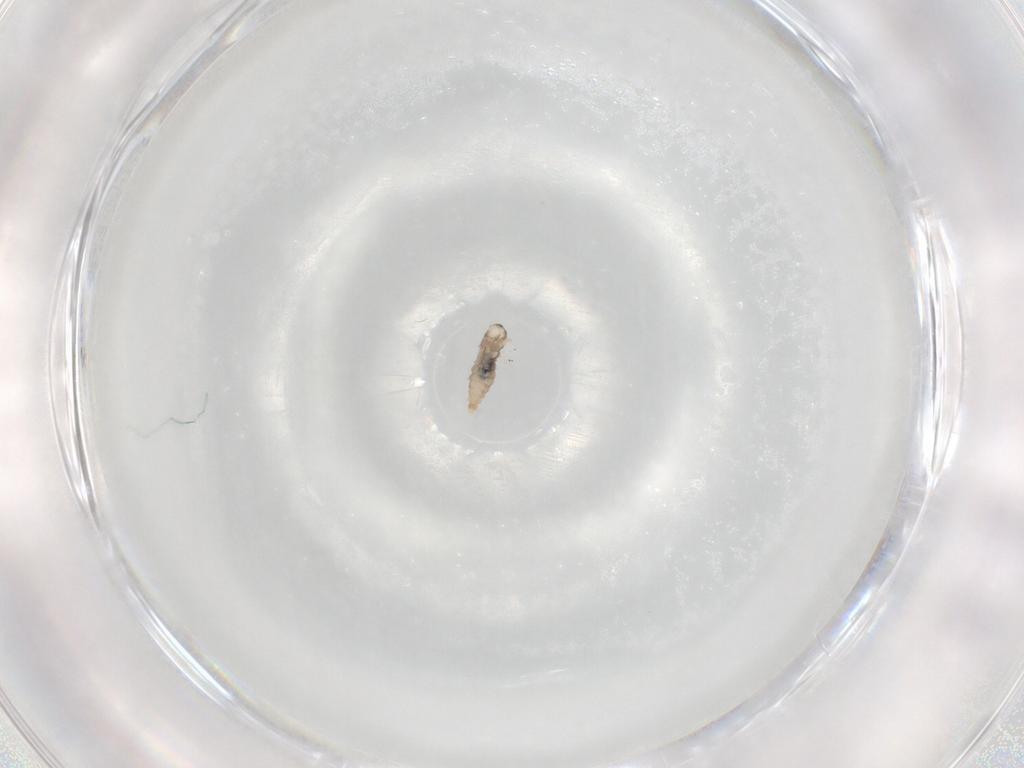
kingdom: Animalia
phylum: Arthropoda
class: Insecta
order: Diptera
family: Cecidomyiidae
